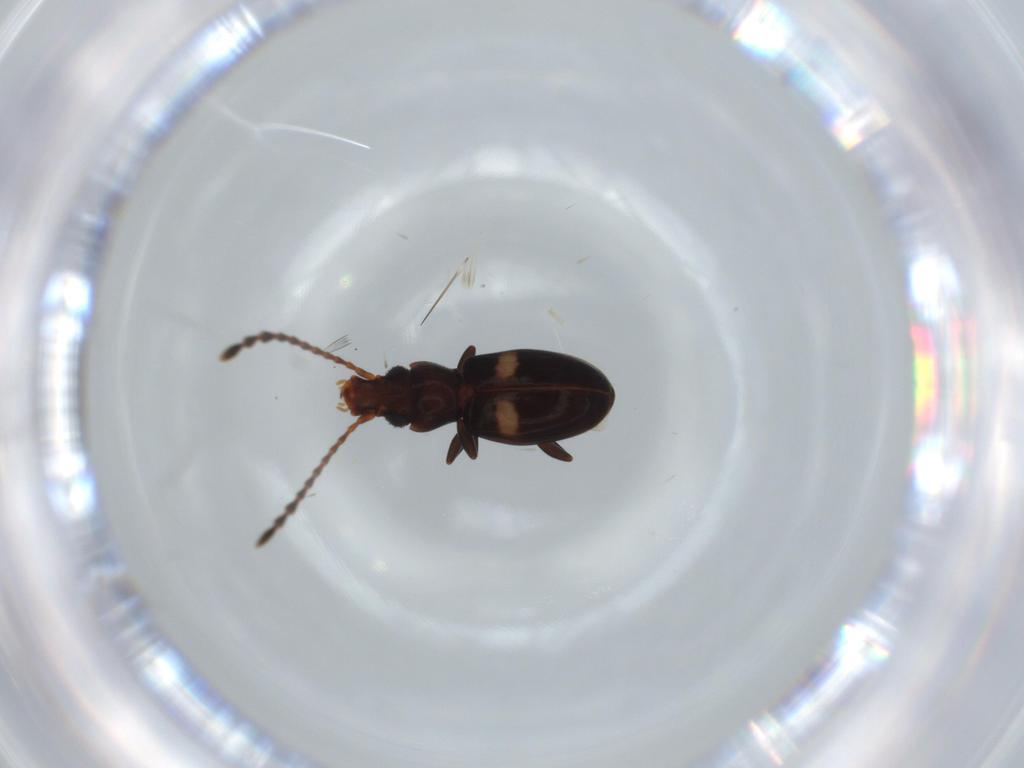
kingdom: Animalia
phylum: Arthropoda
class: Insecta
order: Coleoptera
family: Laemophloeidae
